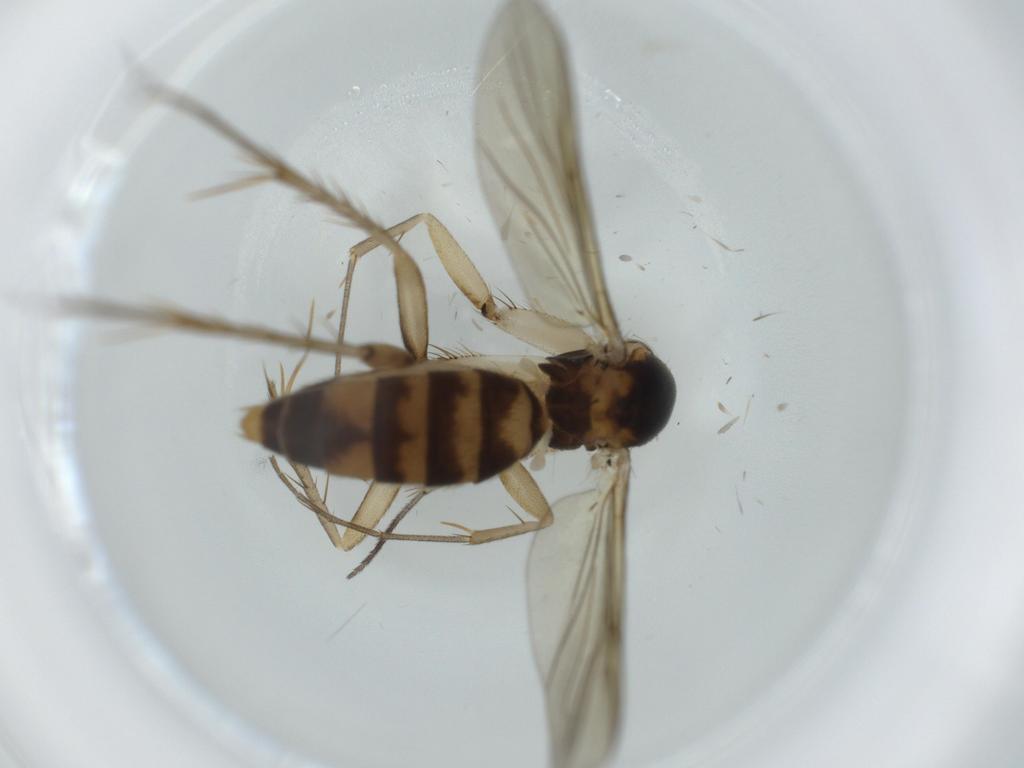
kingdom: Animalia
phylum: Arthropoda
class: Insecta
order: Diptera
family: Mycetophilidae
